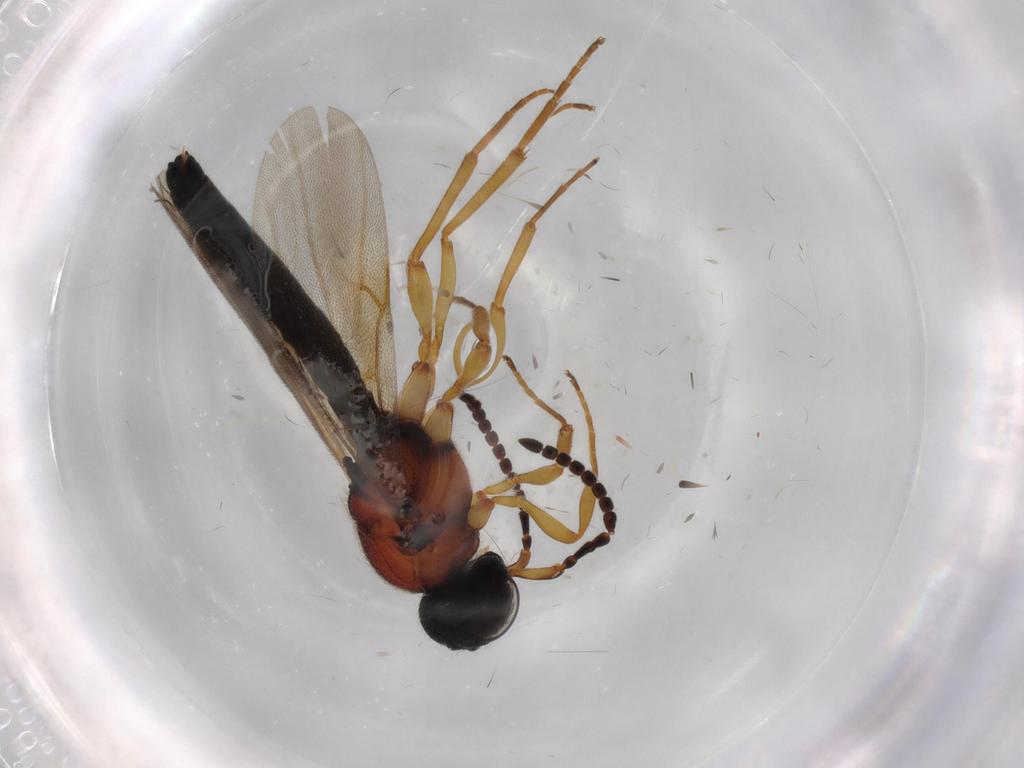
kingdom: Animalia
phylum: Arthropoda
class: Insecta
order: Hymenoptera
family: Scelionidae
